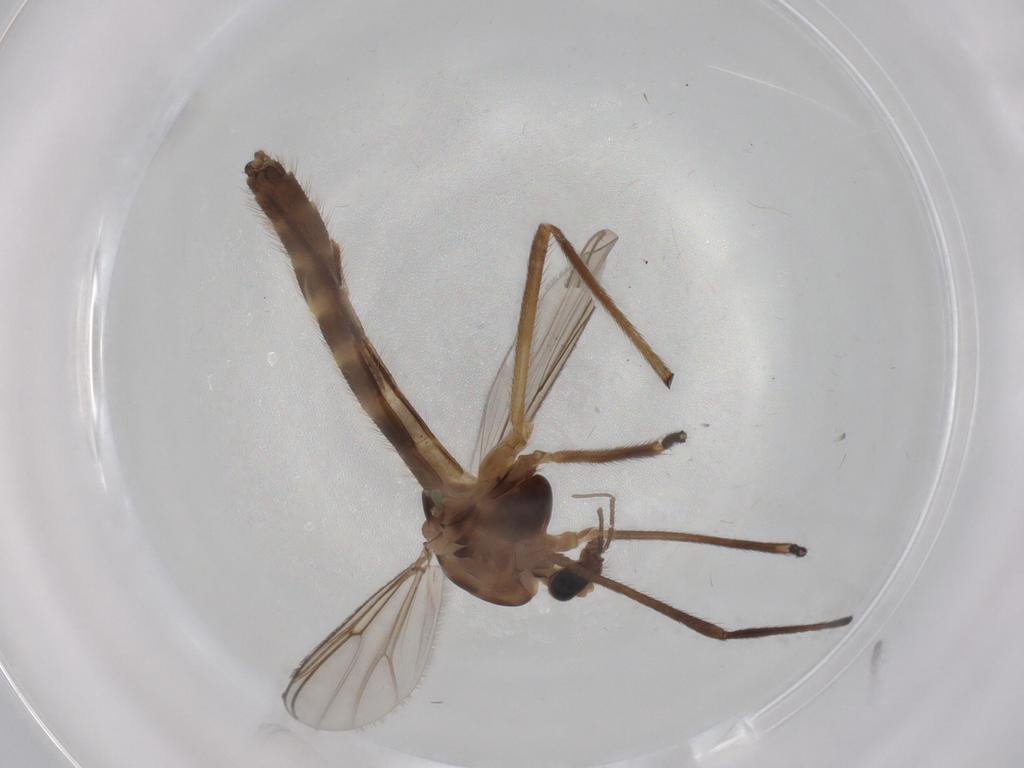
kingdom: Animalia
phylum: Arthropoda
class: Insecta
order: Diptera
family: Chironomidae
